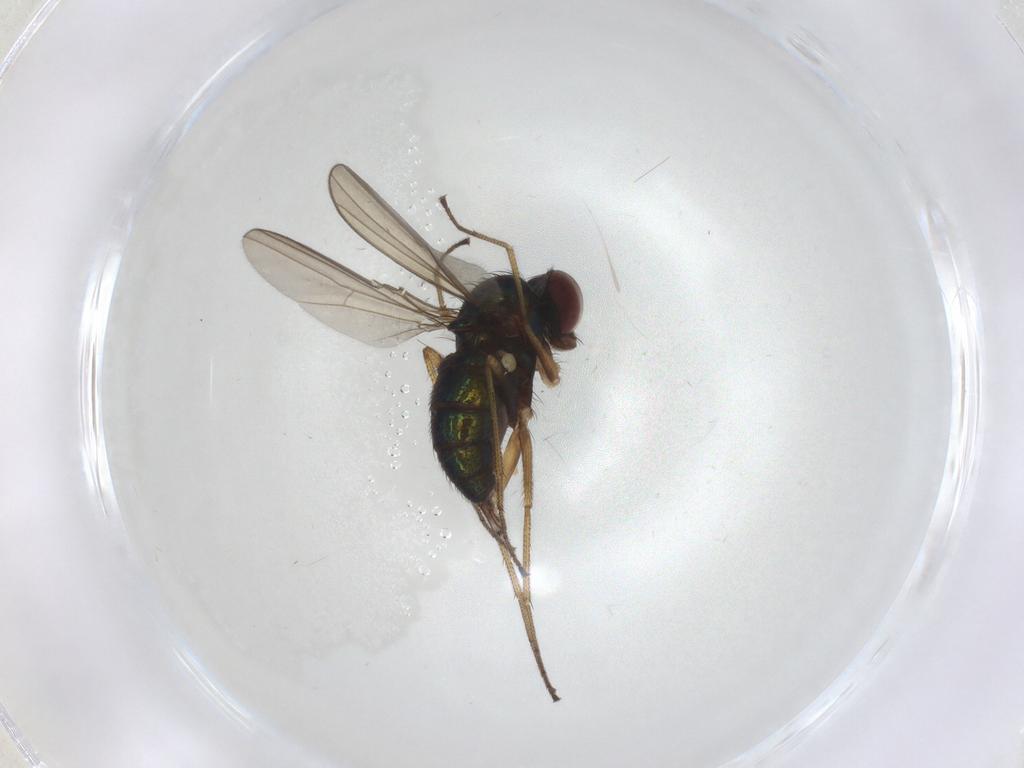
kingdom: Animalia
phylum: Arthropoda
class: Insecta
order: Diptera
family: Dolichopodidae
